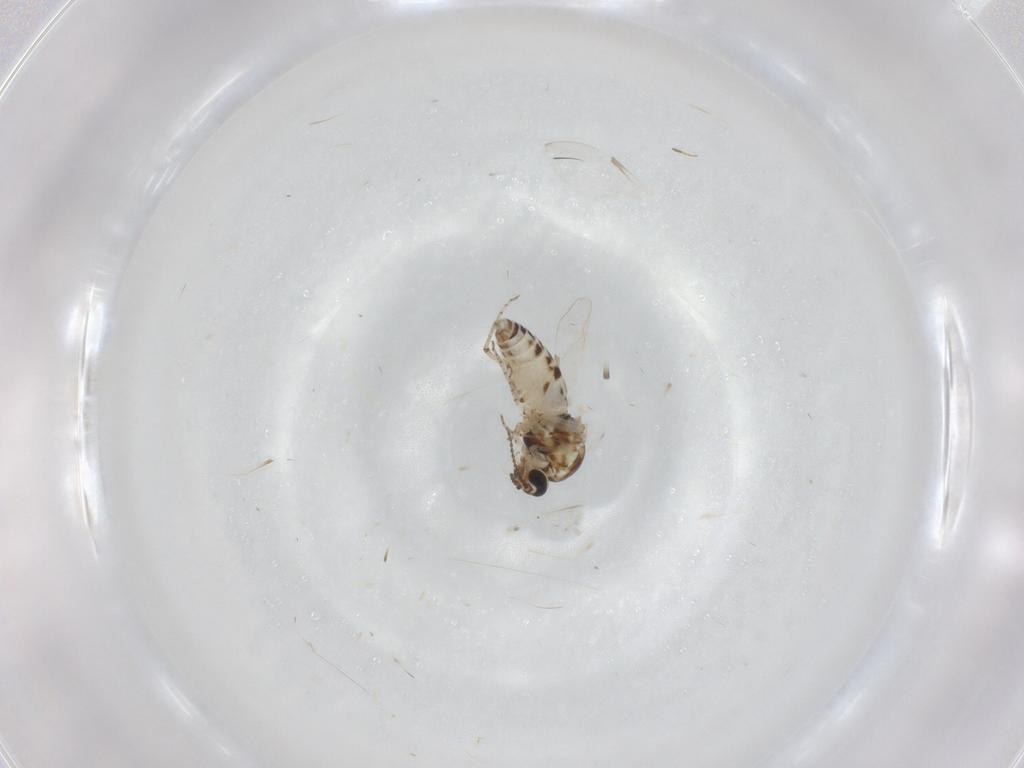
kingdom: Animalia
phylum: Arthropoda
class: Insecta
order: Diptera
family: Ceratopogonidae
